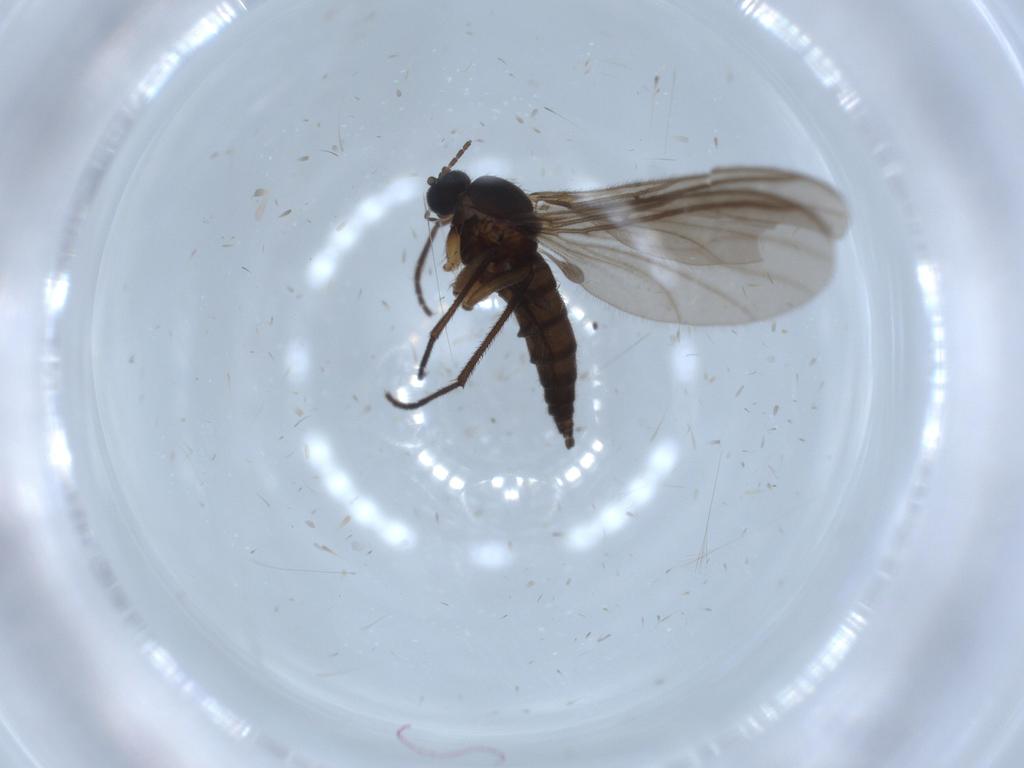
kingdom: Animalia
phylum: Arthropoda
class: Insecta
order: Diptera
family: Sciaridae
